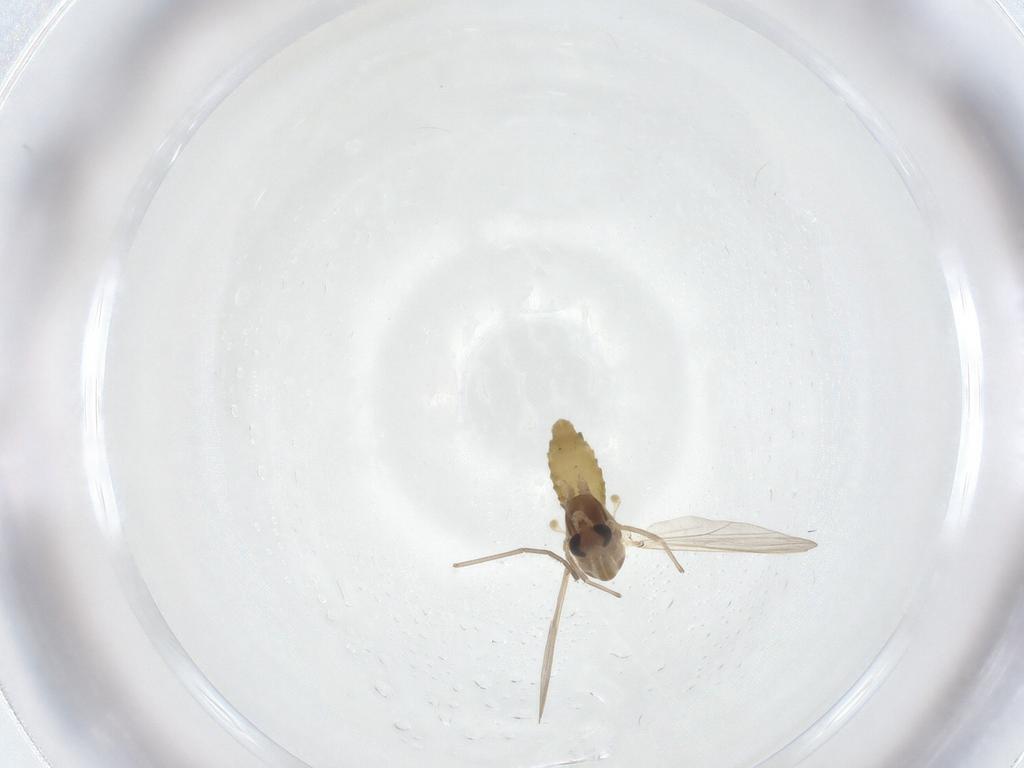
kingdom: Animalia
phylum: Arthropoda
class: Insecta
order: Diptera
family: Chironomidae
